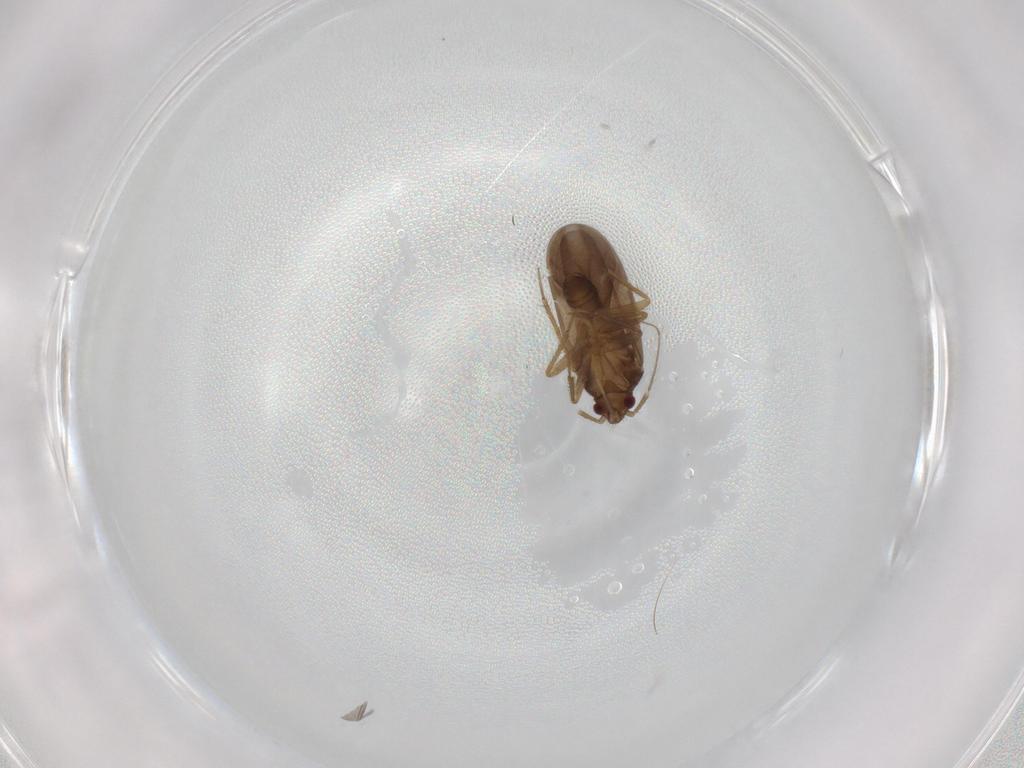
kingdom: Animalia
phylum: Arthropoda
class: Insecta
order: Hemiptera
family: Ceratocombidae
